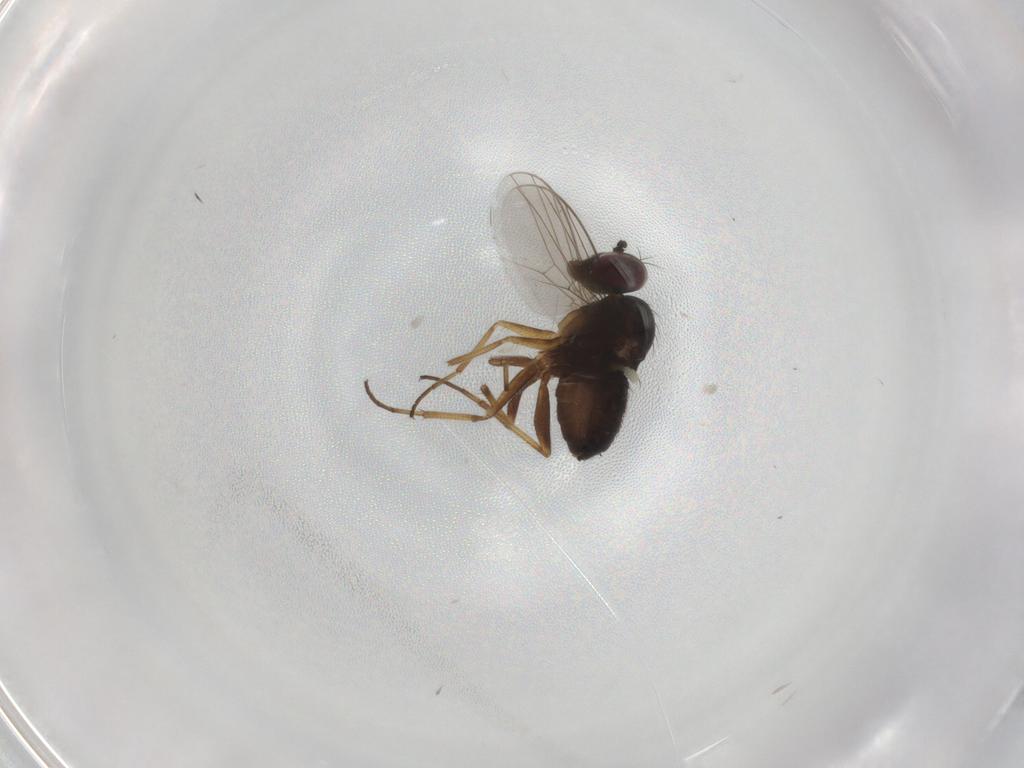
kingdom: Animalia
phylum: Arthropoda
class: Insecta
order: Diptera
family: Dolichopodidae
